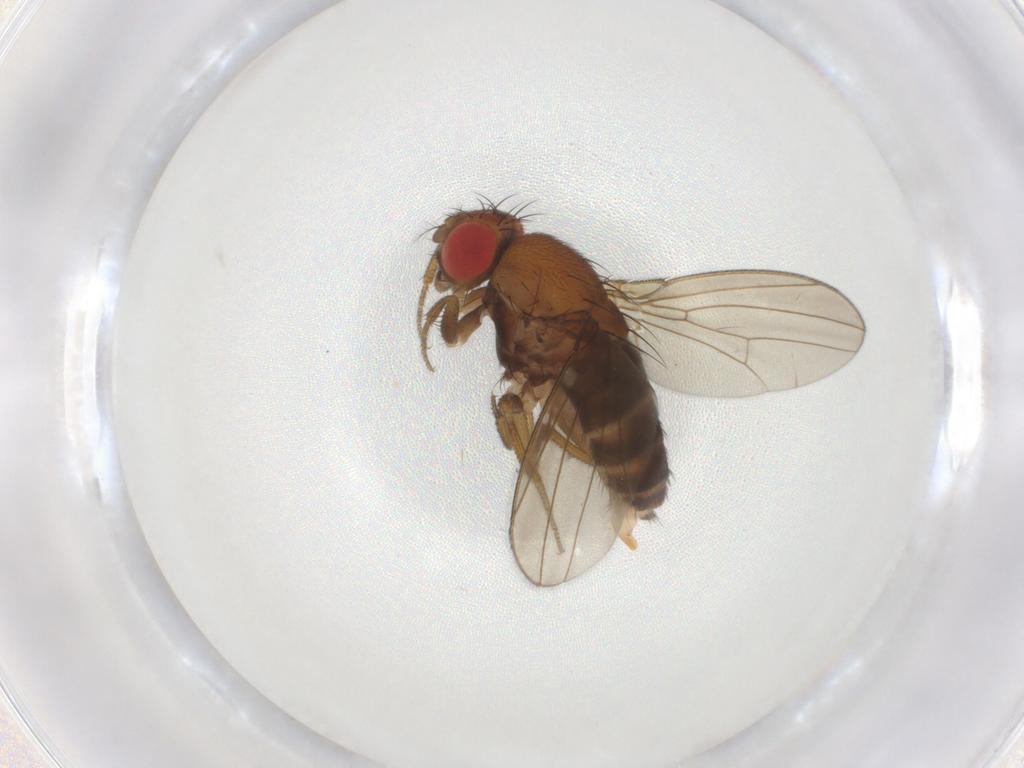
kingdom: Animalia
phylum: Arthropoda
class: Insecta
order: Diptera
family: Drosophilidae
